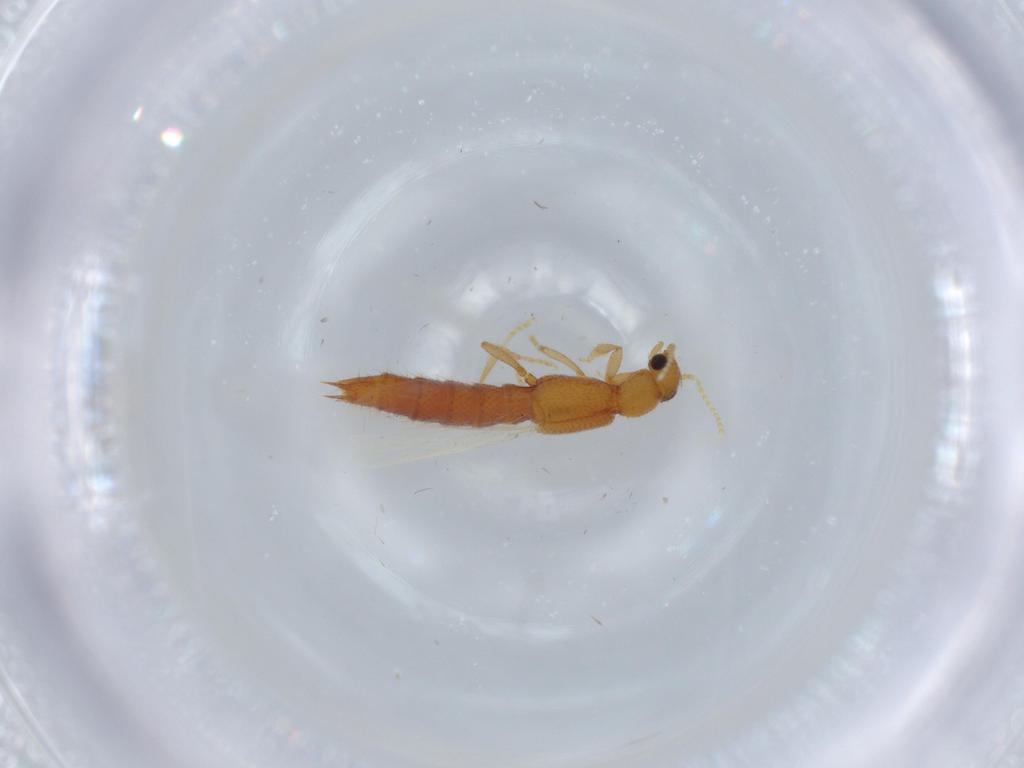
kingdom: Animalia
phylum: Arthropoda
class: Insecta
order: Coleoptera
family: Staphylinidae
